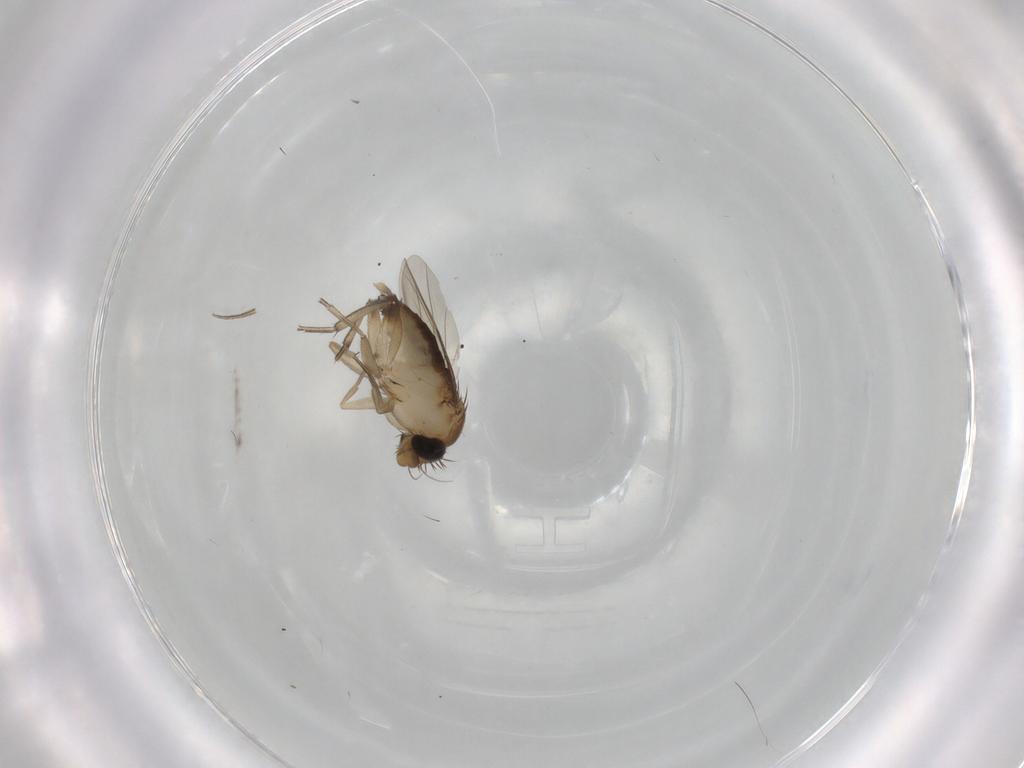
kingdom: Animalia
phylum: Arthropoda
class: Insecta
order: Diptera
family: Phoridae
